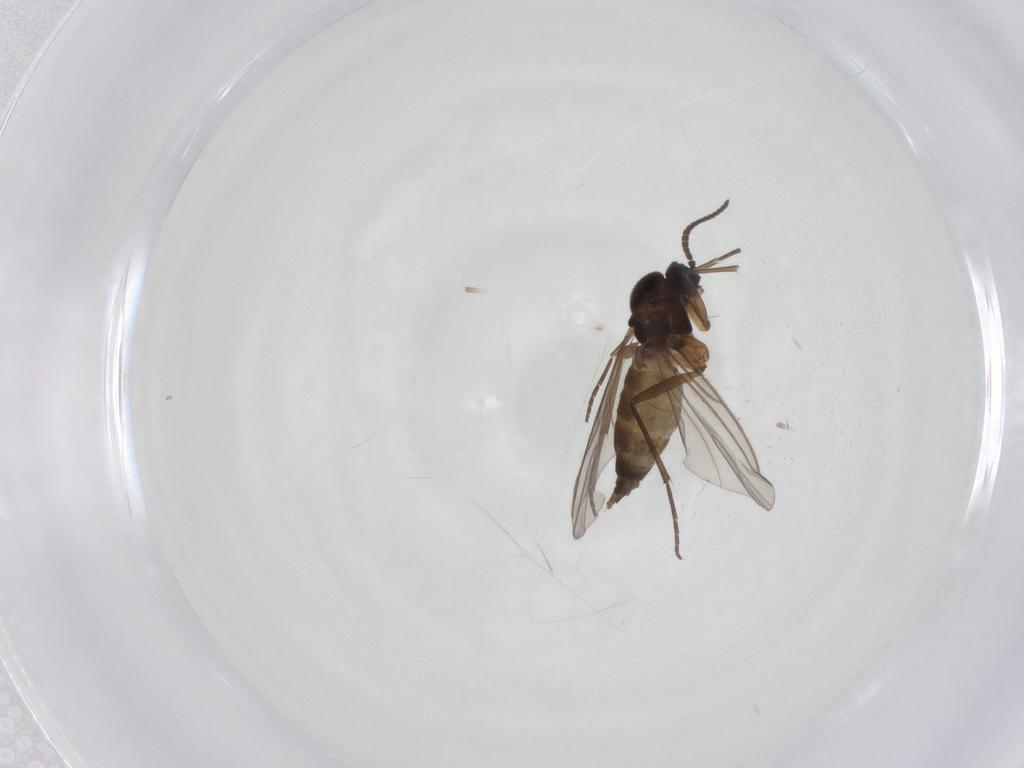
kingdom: Animalia
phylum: Arthropoda
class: Insecta
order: Diptera
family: Sciaridae
